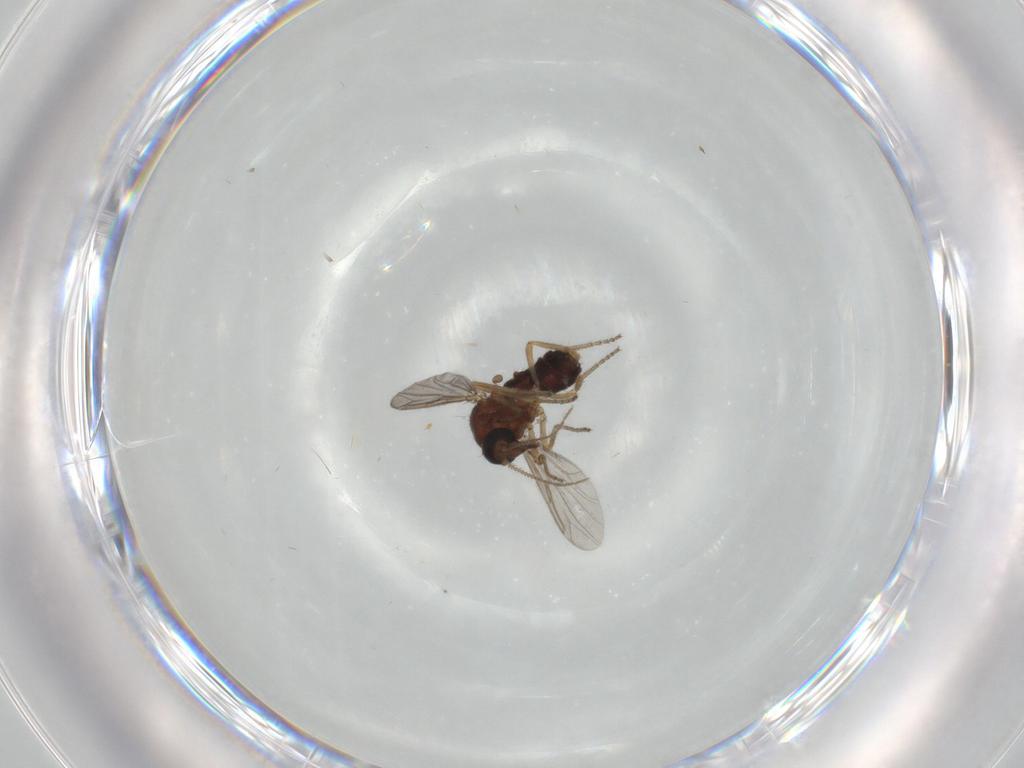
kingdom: Animalia
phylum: Arthropoda
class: Insecta
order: Diptera
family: Ceratopogonidae
